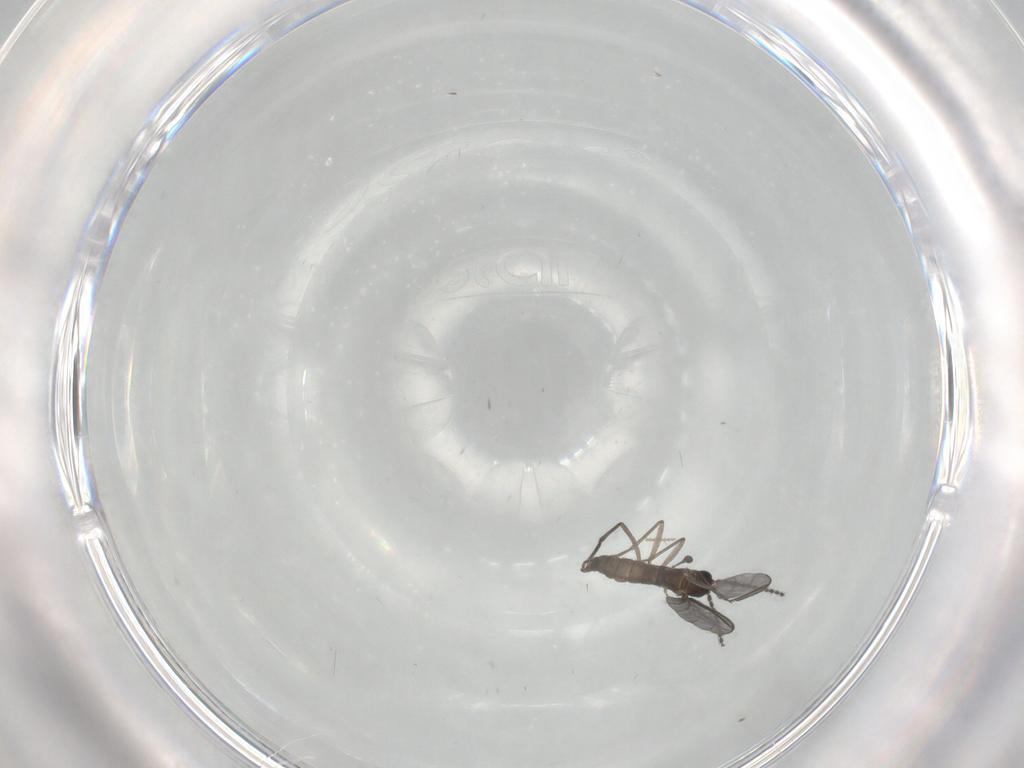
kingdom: Animalia
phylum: Arthropoda
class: Insecta
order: Diptera
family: Cecidomyiidae
